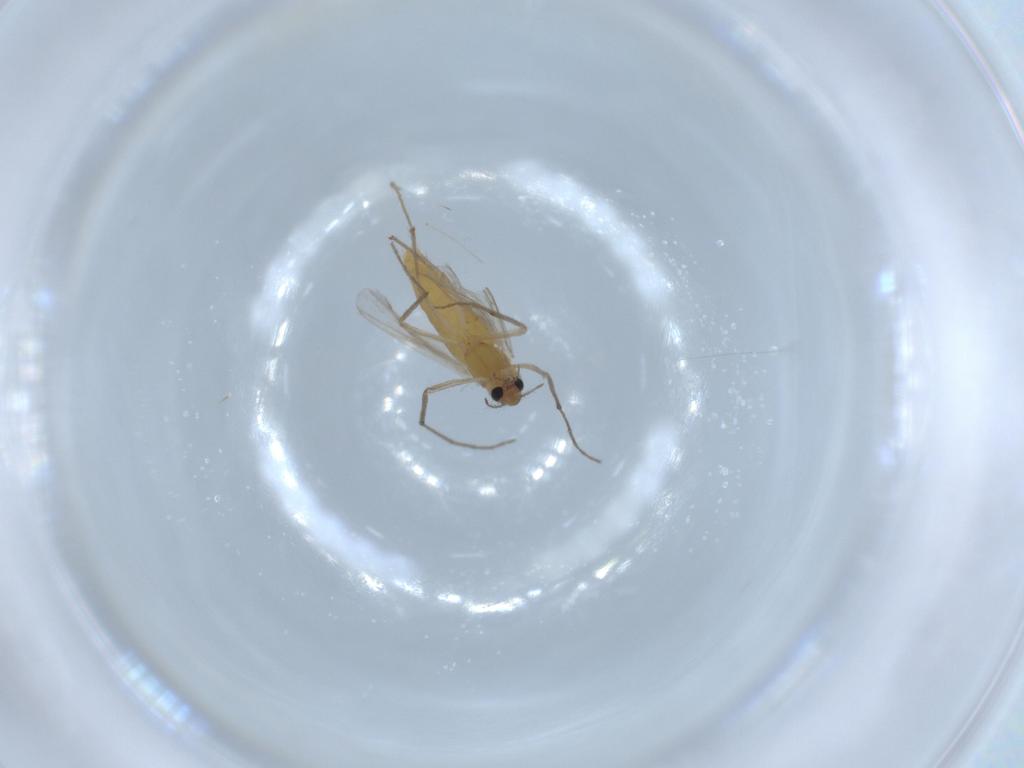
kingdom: Animalia
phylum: Arthropoda
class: Insecta
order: Diptera
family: Chironomidae
